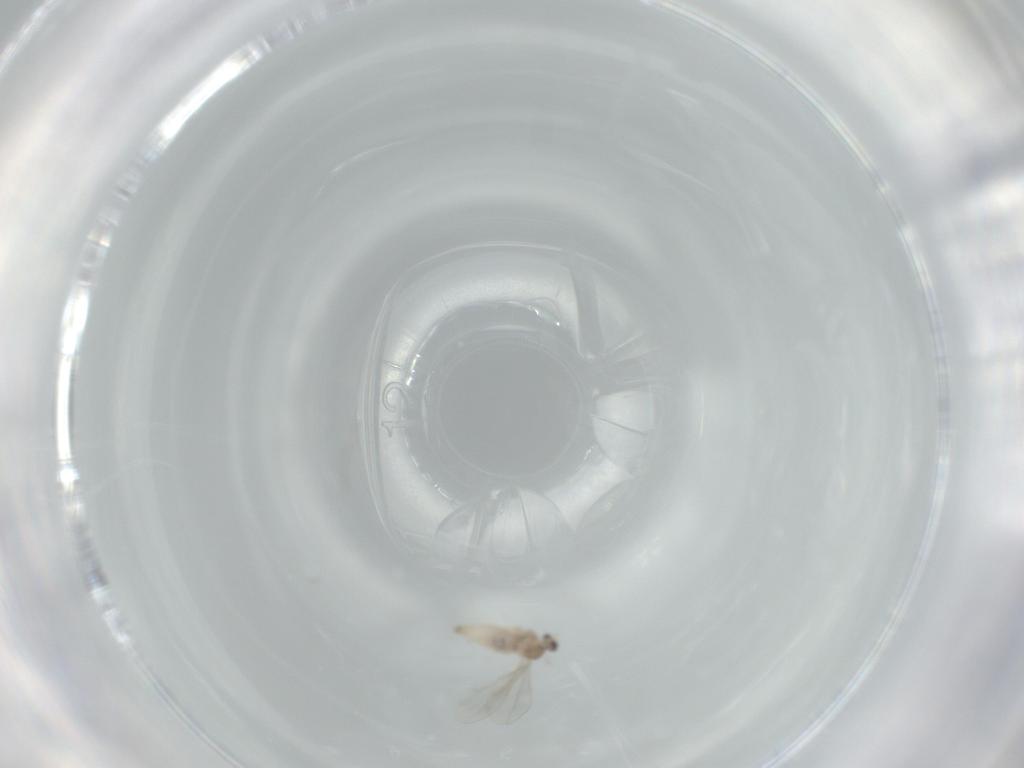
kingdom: Animalia
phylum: Arthropoda
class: Insecta
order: Diptera
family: Cecidomyiidae
